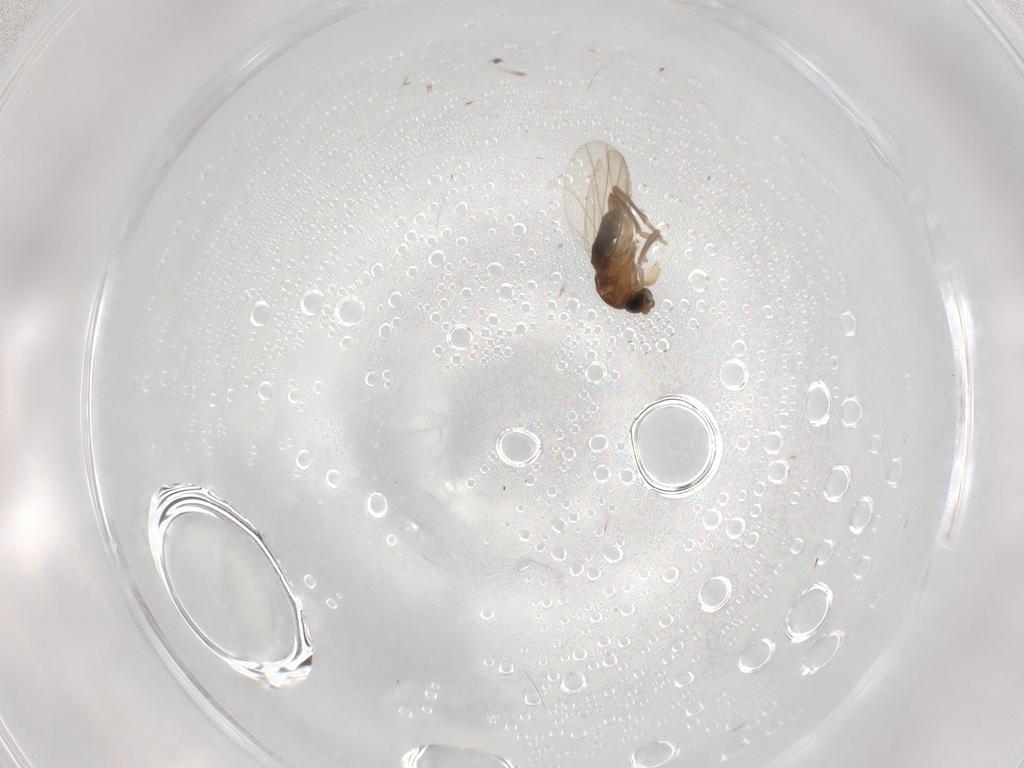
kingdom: Animalia
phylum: Arthropoda
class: Insecta
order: Diptera
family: Phoridae
